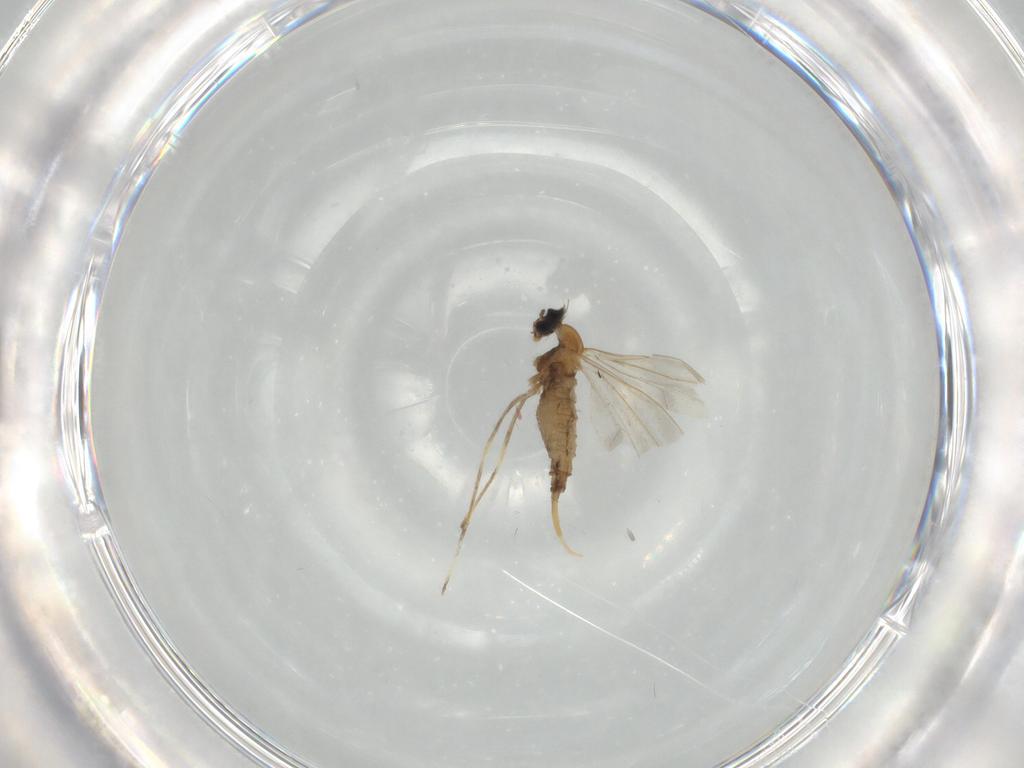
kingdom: Animalia
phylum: Arthropoda
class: Insecta
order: Diptera
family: Cecidomyiidae
